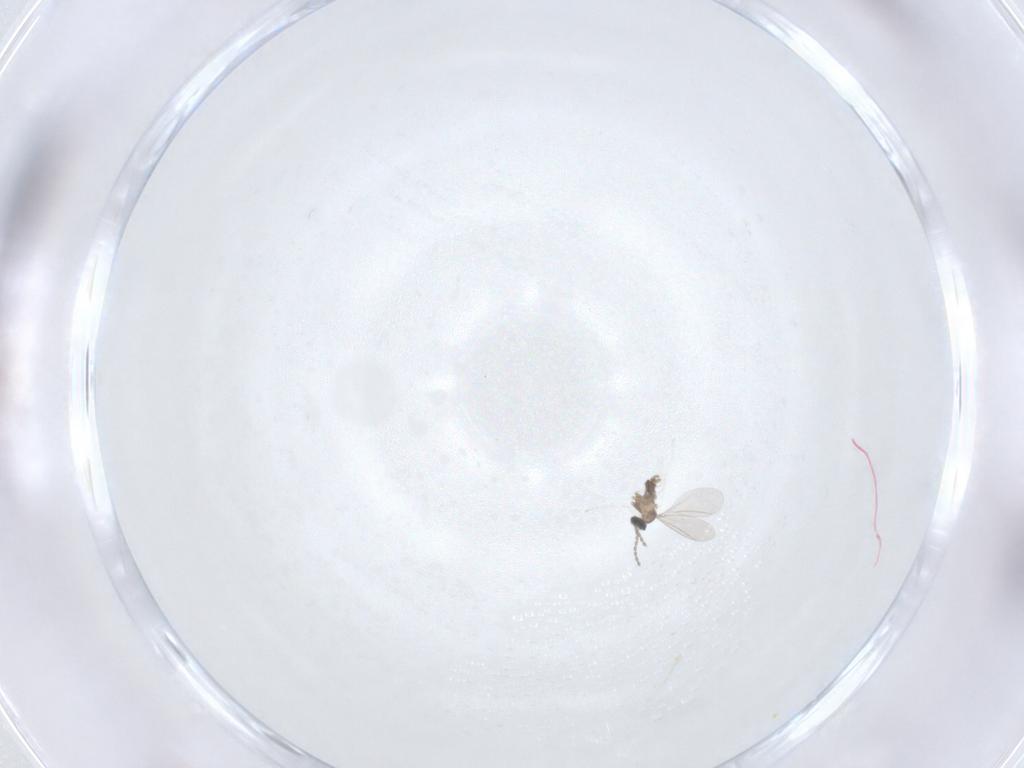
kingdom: Animalia
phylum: Arthropoda
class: Insecta
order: Diptera
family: Cecidomyiidae
